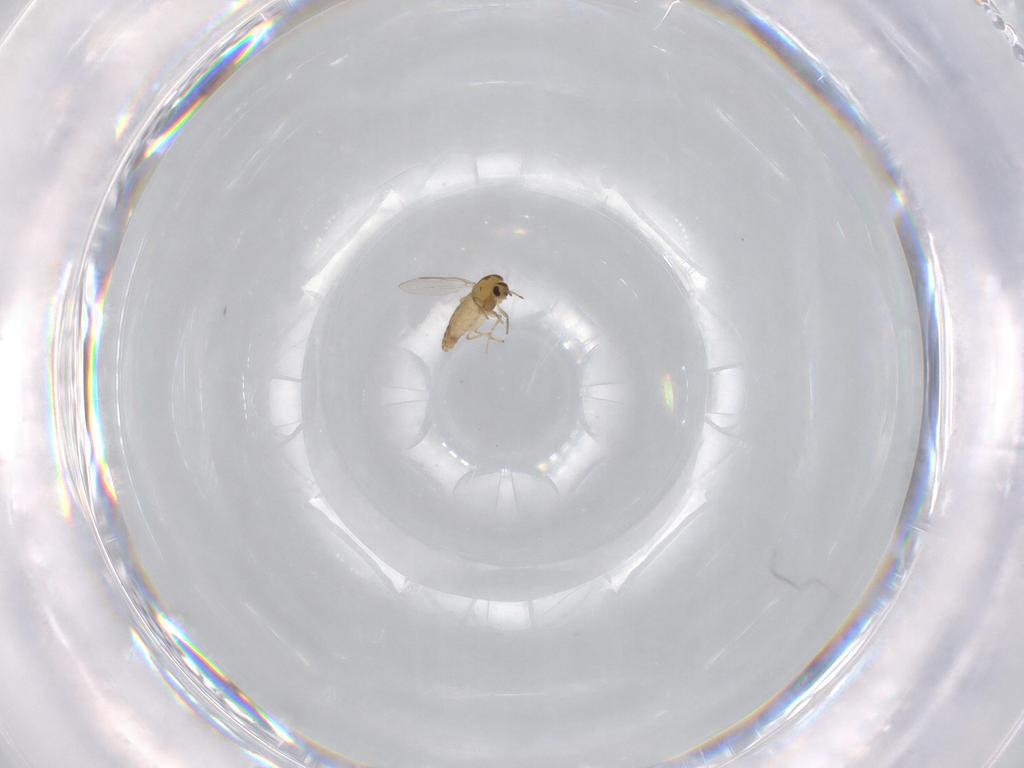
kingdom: Animalia
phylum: Arthropoda
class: Insecta
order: Diptera
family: Chironomidae
